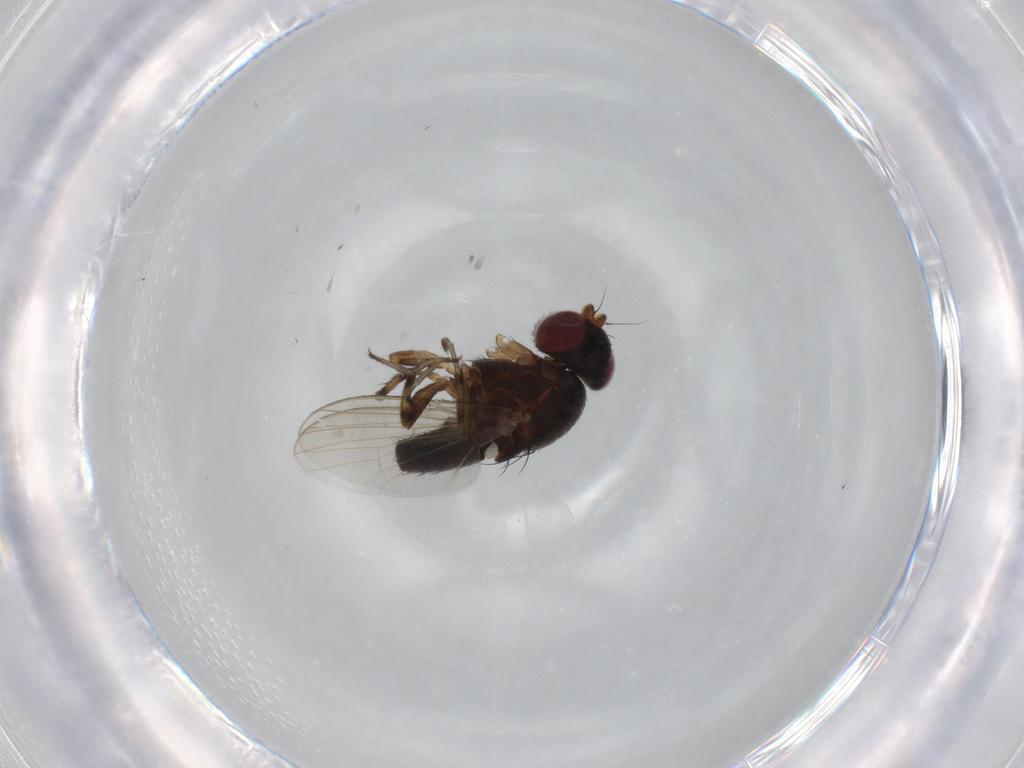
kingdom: Animalia
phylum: Arthropoda
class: Insecta
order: Diptera
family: Heleomyzidae
